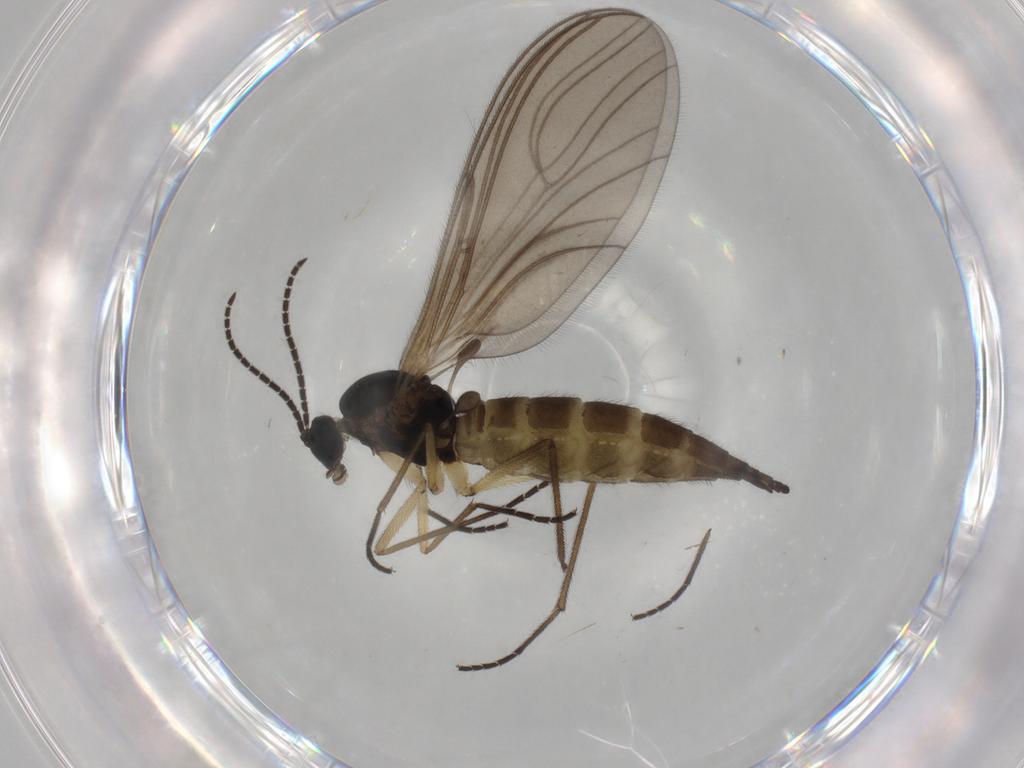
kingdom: Animalia
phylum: Arthropoda
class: Insecta
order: Diptera
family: Sciaridae
